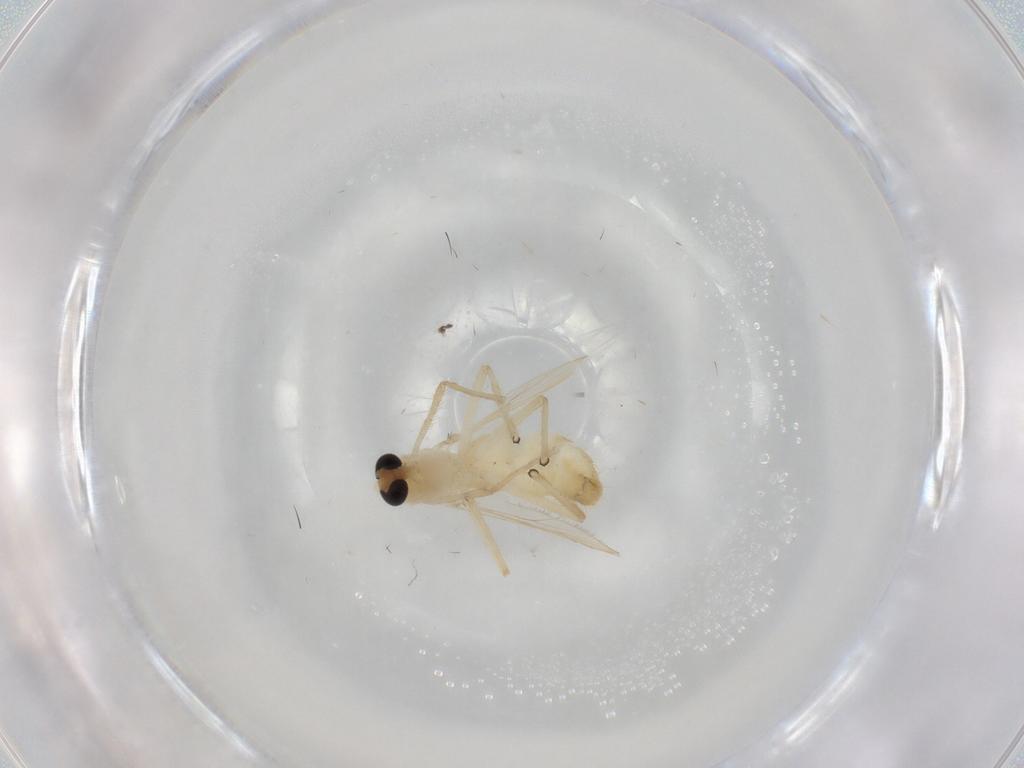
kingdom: Animalia
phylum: Arthropoda
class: Insecta
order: Diptera
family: Chironomidae
